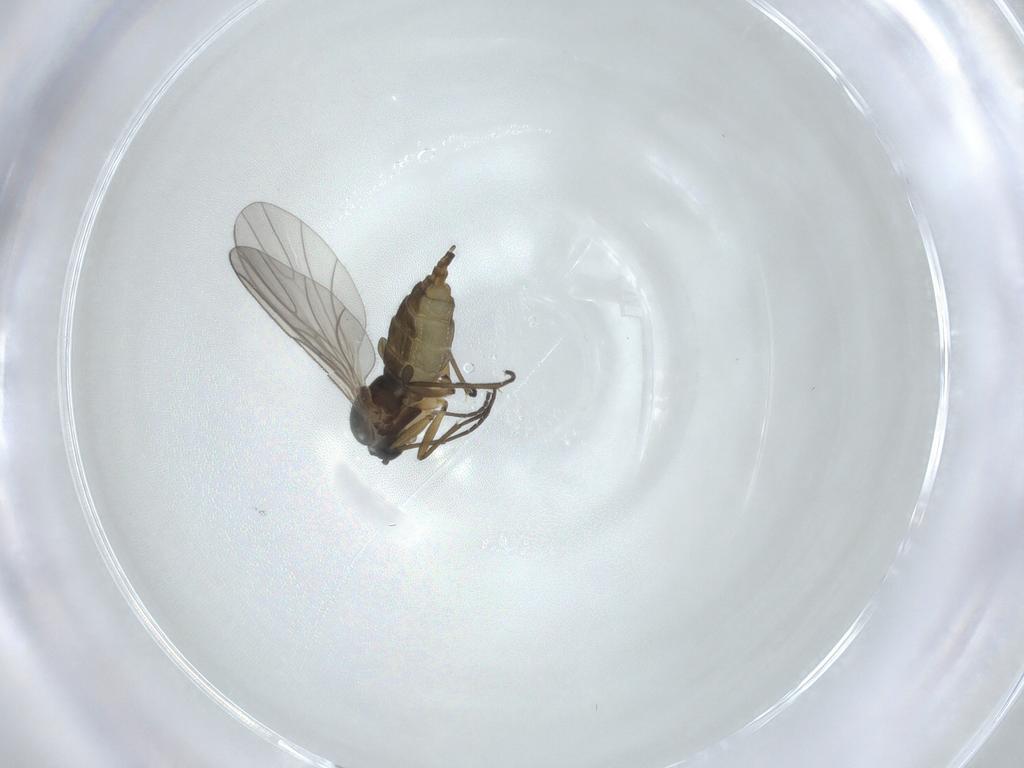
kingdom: Animalia
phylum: Arthropoda
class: Insecta
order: Diptera
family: Sciaridae
